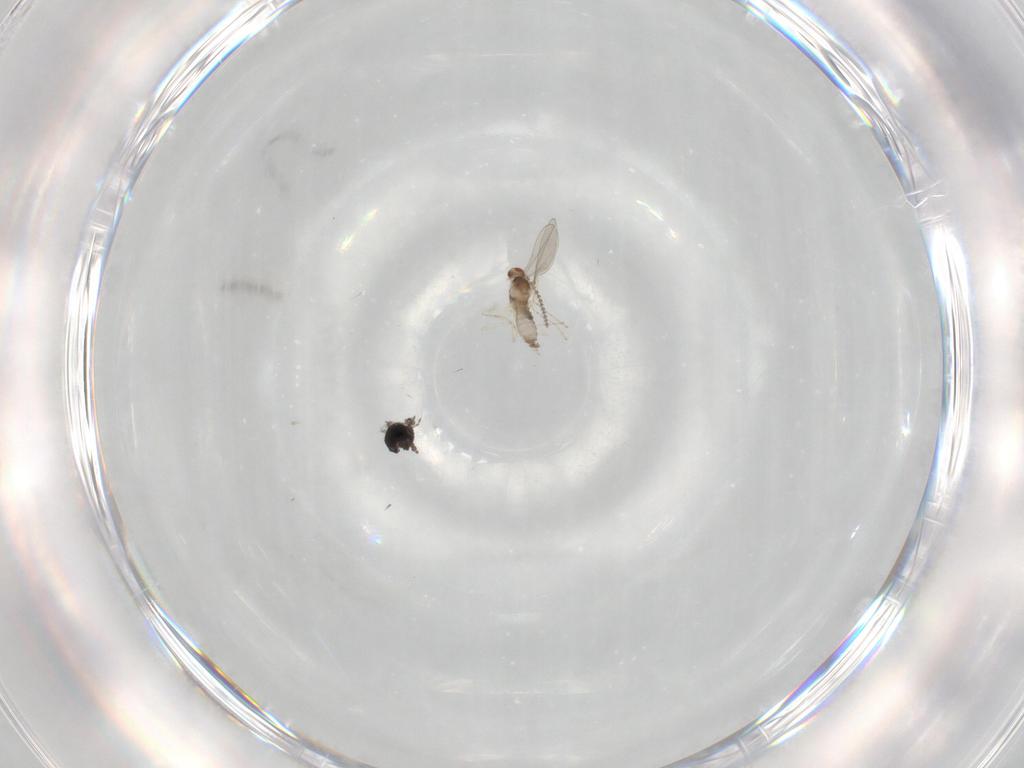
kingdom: Animalia
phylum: Arthropoda
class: Insecta
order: Diptera
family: Cecidomyiidae
